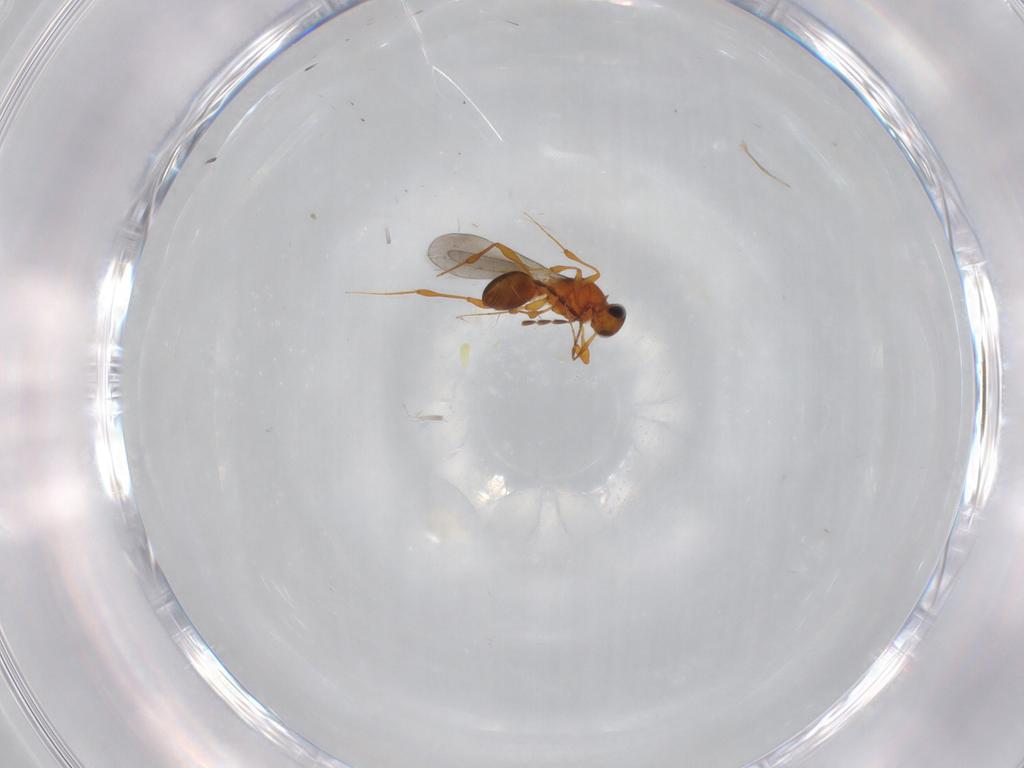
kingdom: Animalia
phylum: Arthropoda
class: Insecta
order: Hymenoptera
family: Platygastridae
